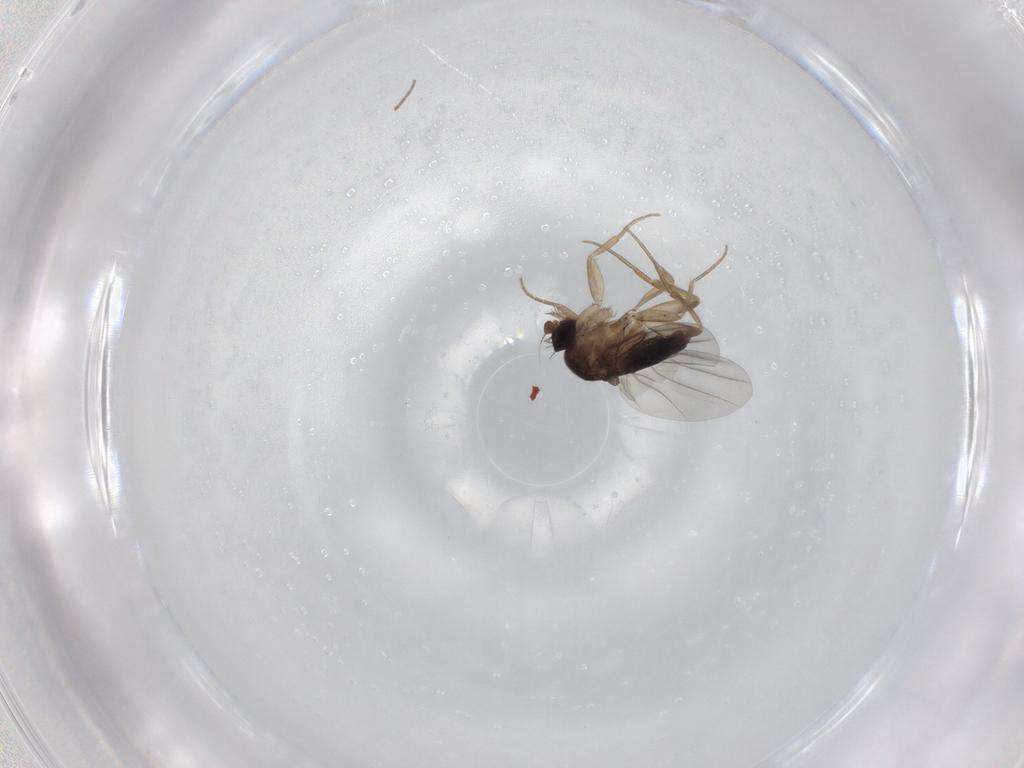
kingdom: Animalia
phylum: Arthropoda
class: Insecta
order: Diptera
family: Phoridae
